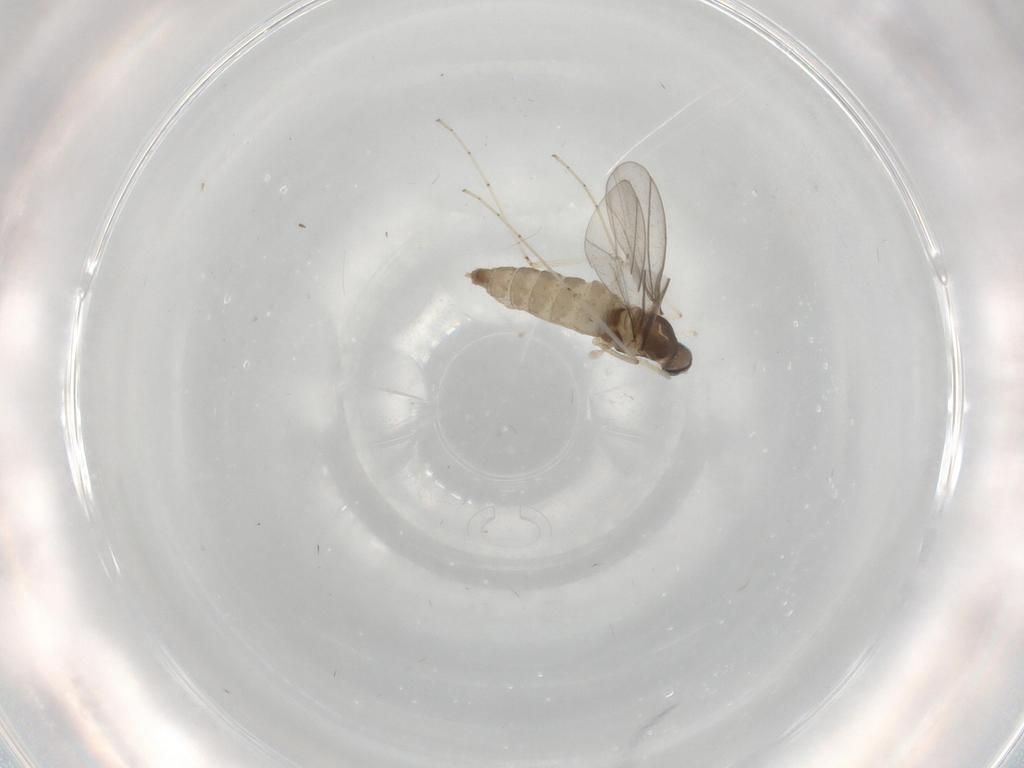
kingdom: Animalia
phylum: Arthropoda
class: Insecta
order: Diptera
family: Cecidomyiidae
